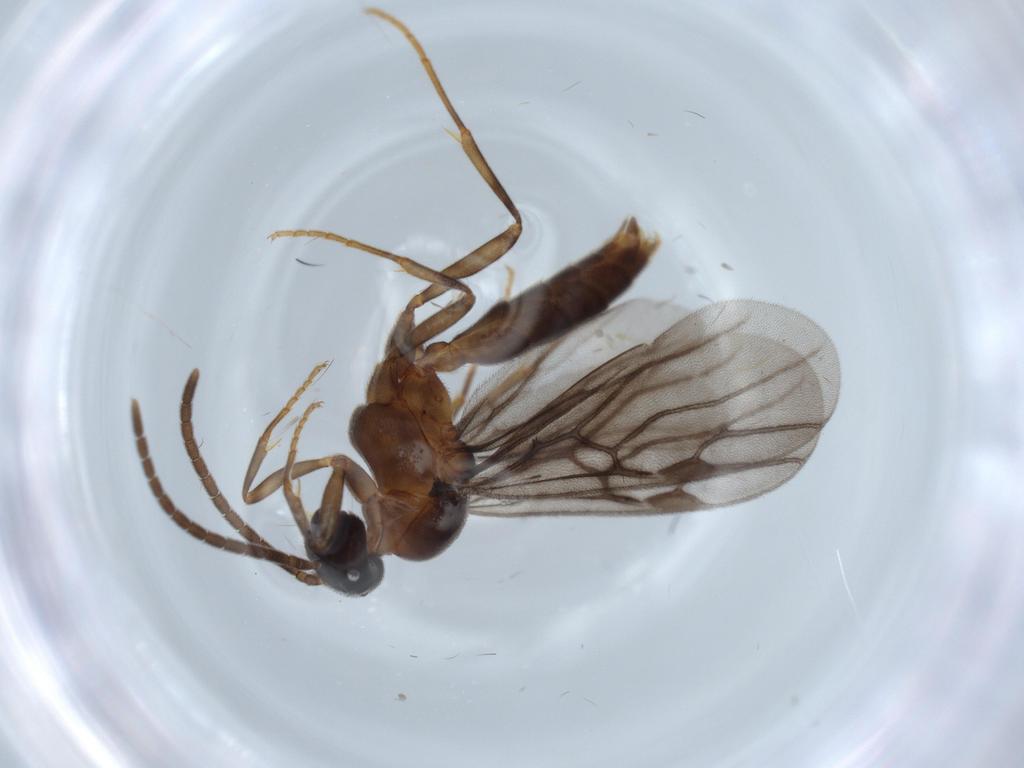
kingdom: Animalia
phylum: Arthropoda
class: Insecta
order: Hymenoptera
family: Formicidae
